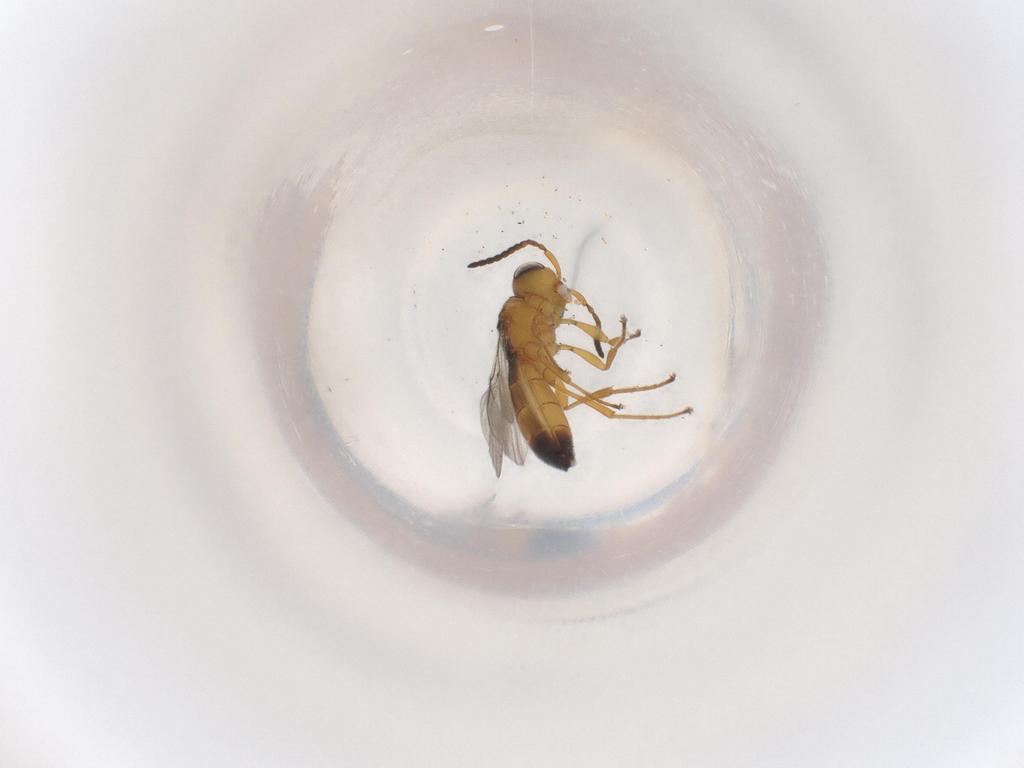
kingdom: Animalia
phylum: Arthropoda
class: Insecta
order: Hymenoptera
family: Scelionidae
